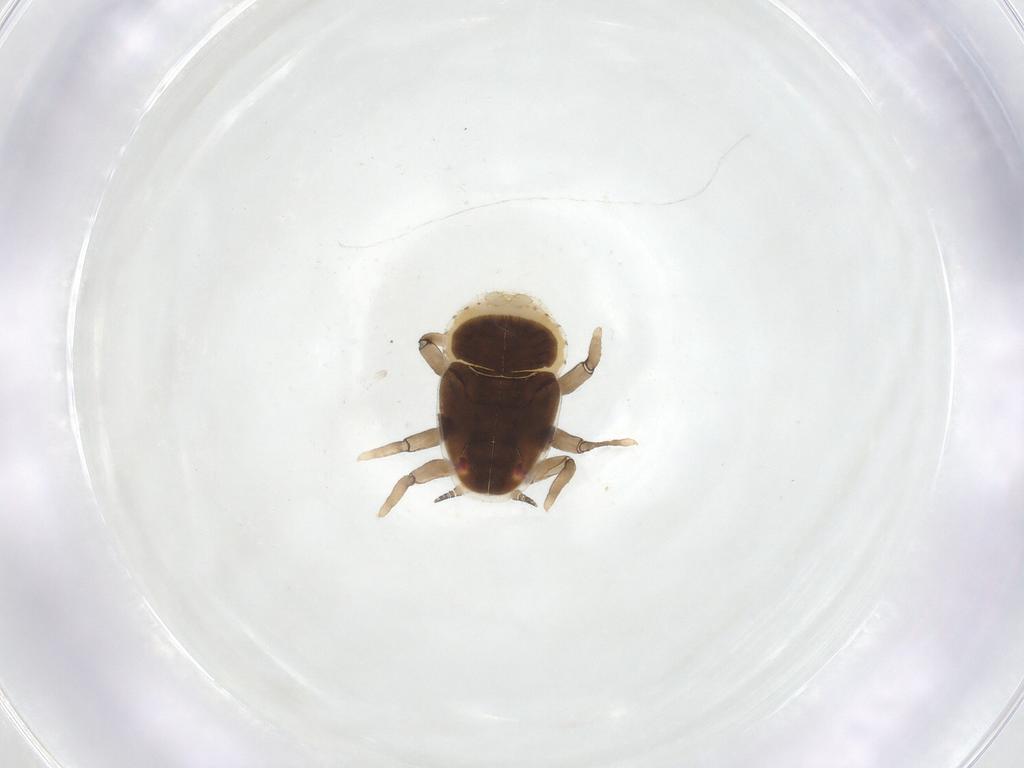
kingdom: Animalia
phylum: Arthropoda
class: Insecta
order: Hemiptera
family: Triozidae
